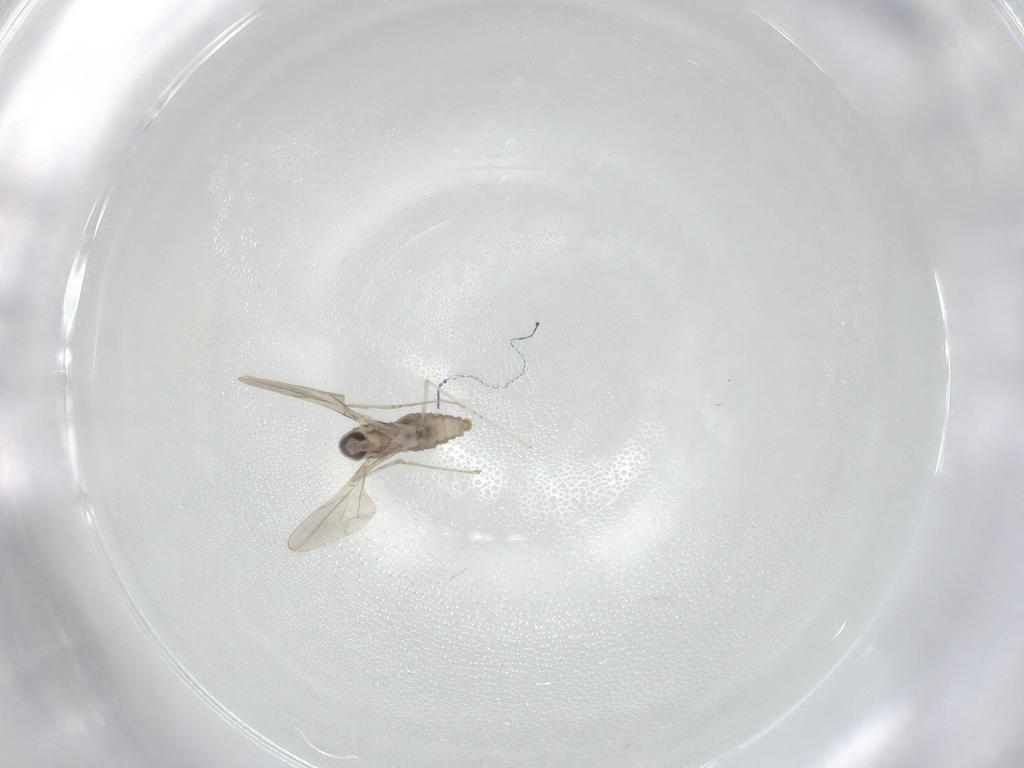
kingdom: Animalia
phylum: Arthropoda
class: Insecta
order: Diptera
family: Cecidomyiidae
